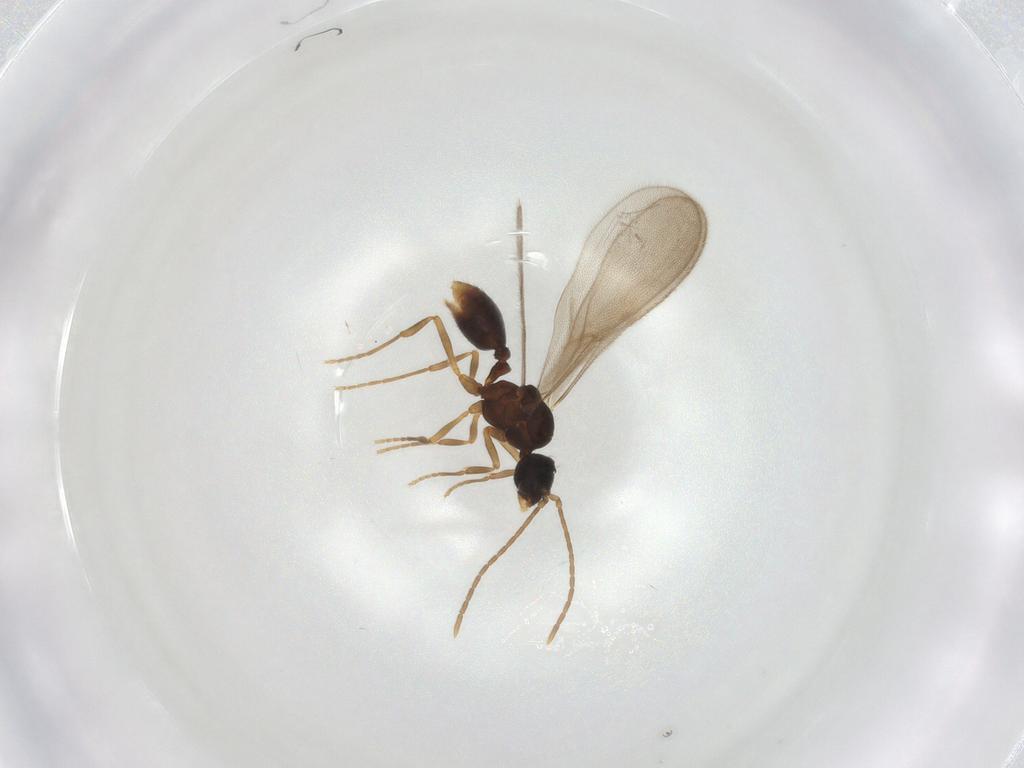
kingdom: Animalia
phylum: Arthropoda
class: Insecta
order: Hymenoptera
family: Formicidae
